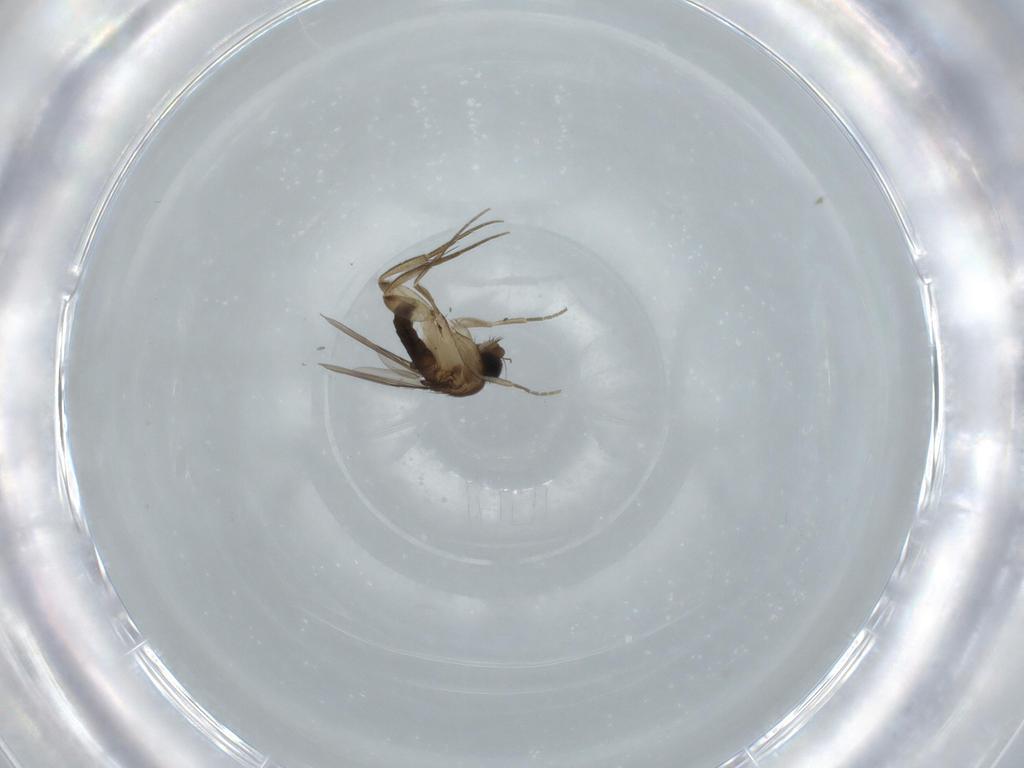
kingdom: Animalia
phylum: Arthropoda
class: Insecta
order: Diptera
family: Phoridae
